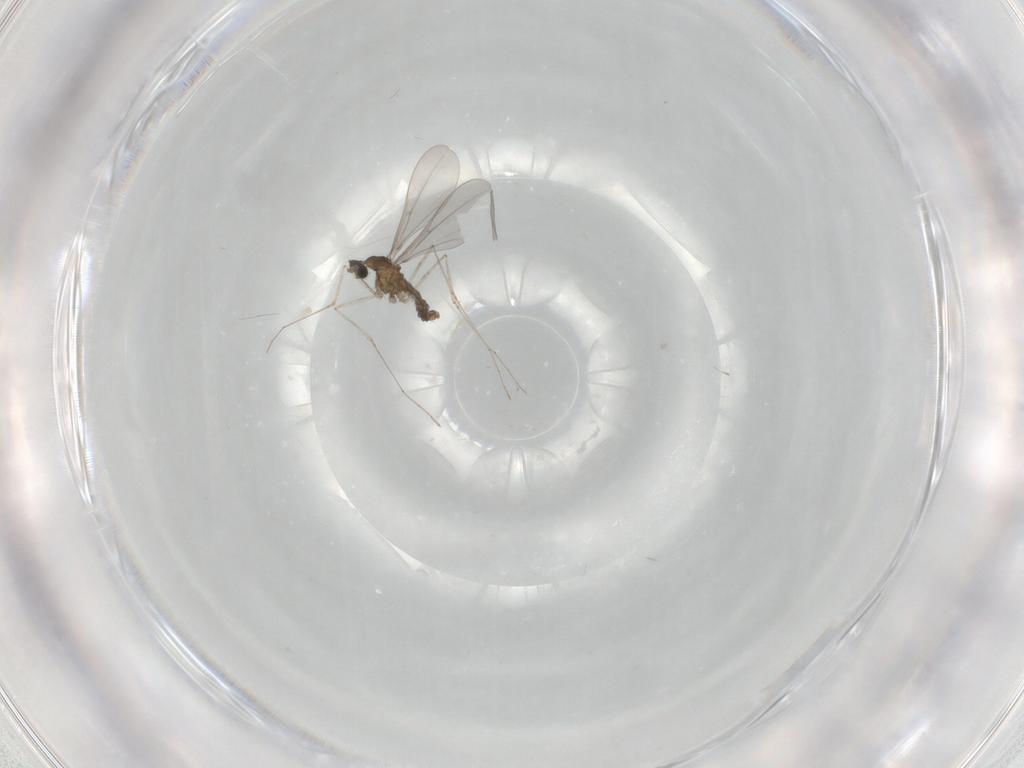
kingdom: Animalia
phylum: Arthropoda
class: Insecta
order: Diptera
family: Cecidomyiidae
